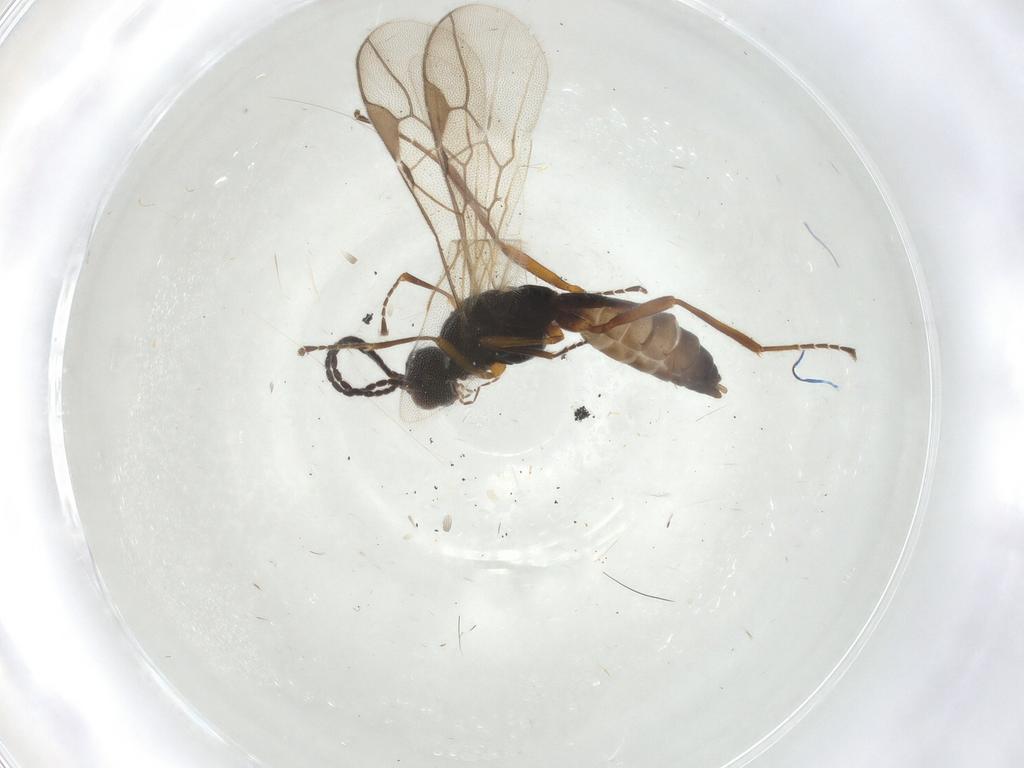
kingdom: Animalia
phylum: Arthropoda
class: Insecta
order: Hymenoptera
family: Braconidae
